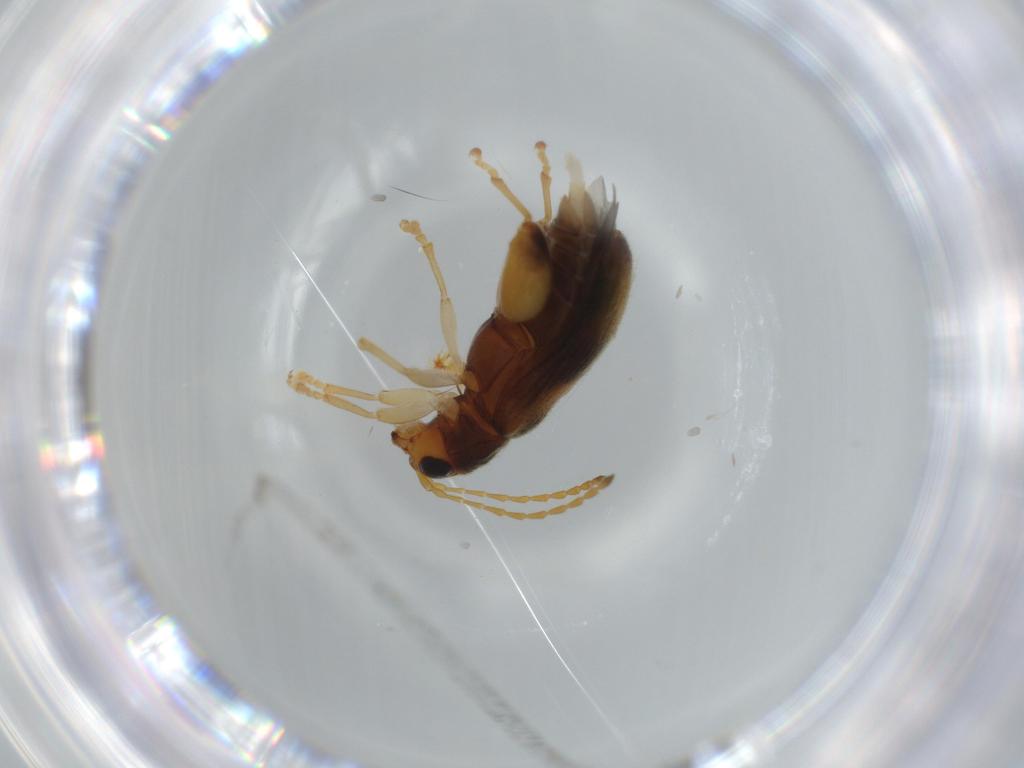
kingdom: Animalia
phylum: Arthropoda
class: Insecta
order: Coleoptera
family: Chrysomelidae
